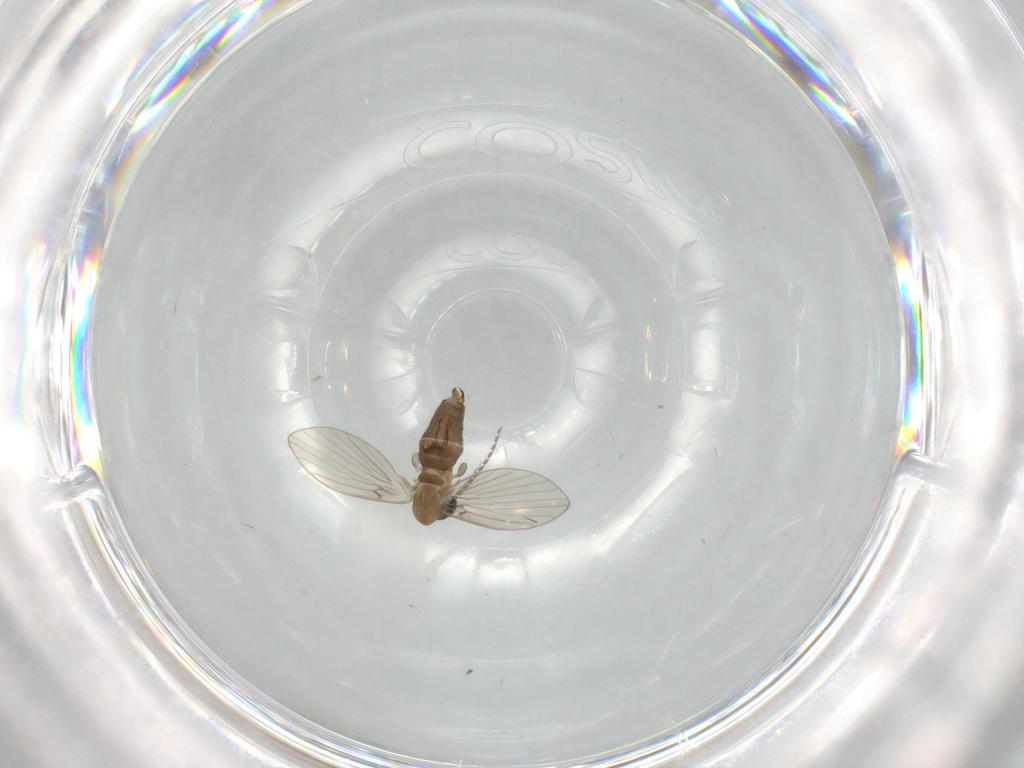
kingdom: Animalia
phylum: Arthropoda
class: Insecta
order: Diptera
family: Psychodidae
